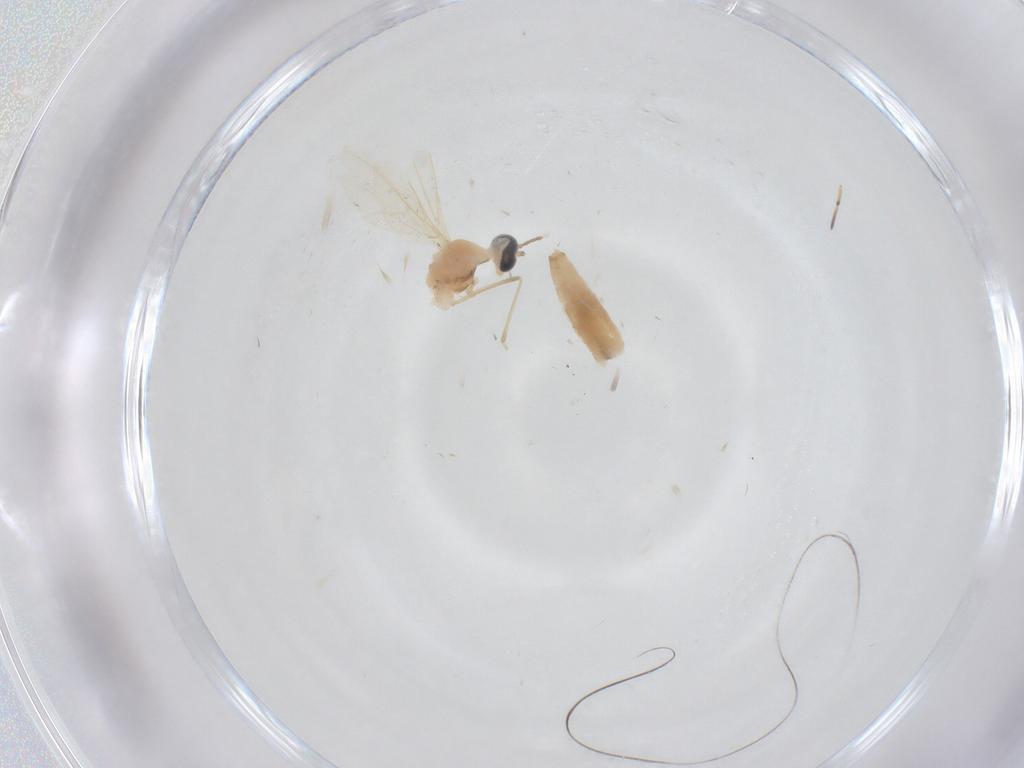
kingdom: Animalia
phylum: Arthropoda
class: Insecta
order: Diptera
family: Cecidomyiidae
